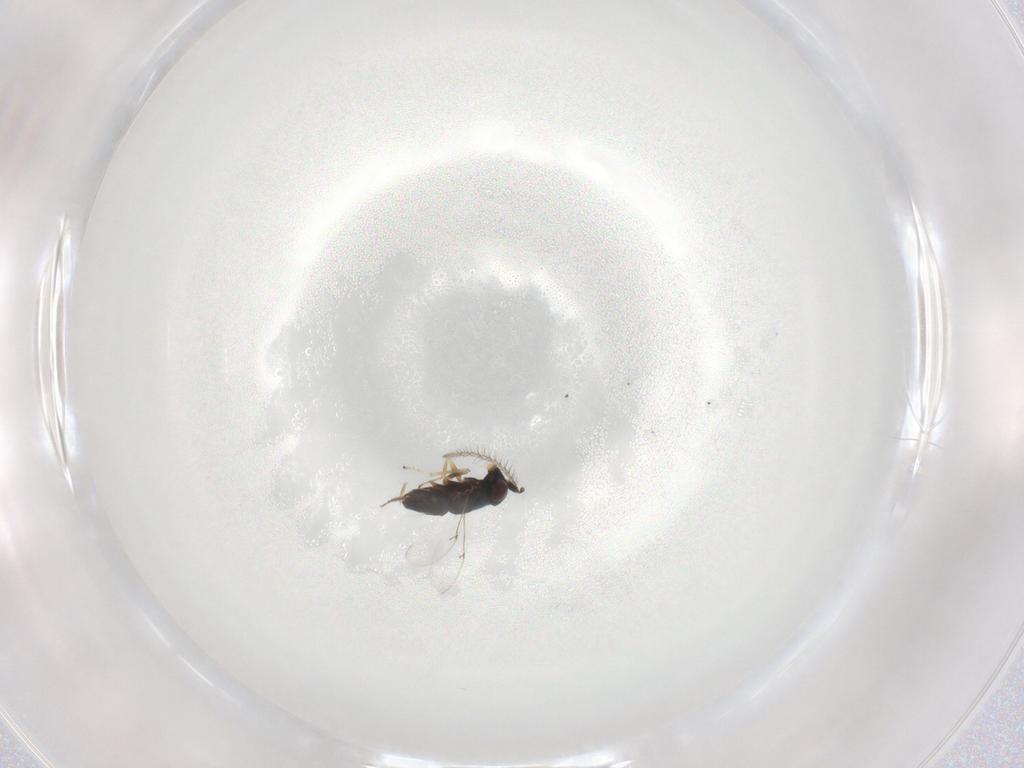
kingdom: Animalia
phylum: Arthropoda
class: Insecta
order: Hymenoptera
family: Encyrtidae
